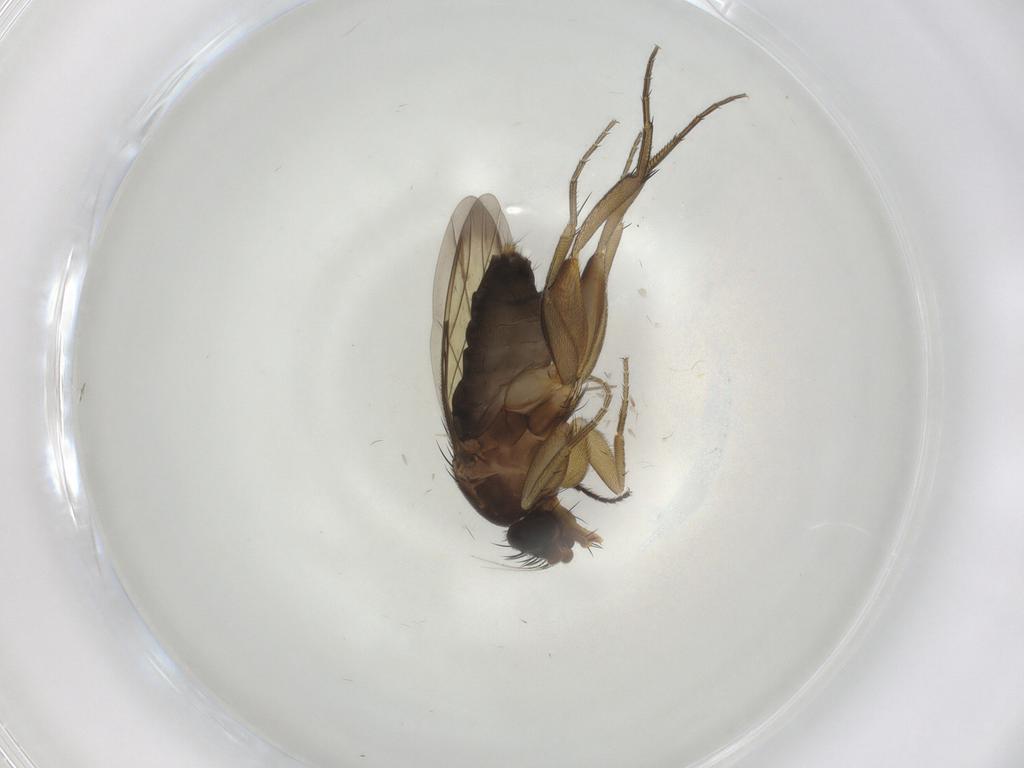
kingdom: Animalia
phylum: Arthropoda
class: Insecta
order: Diptera
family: Phoridae
